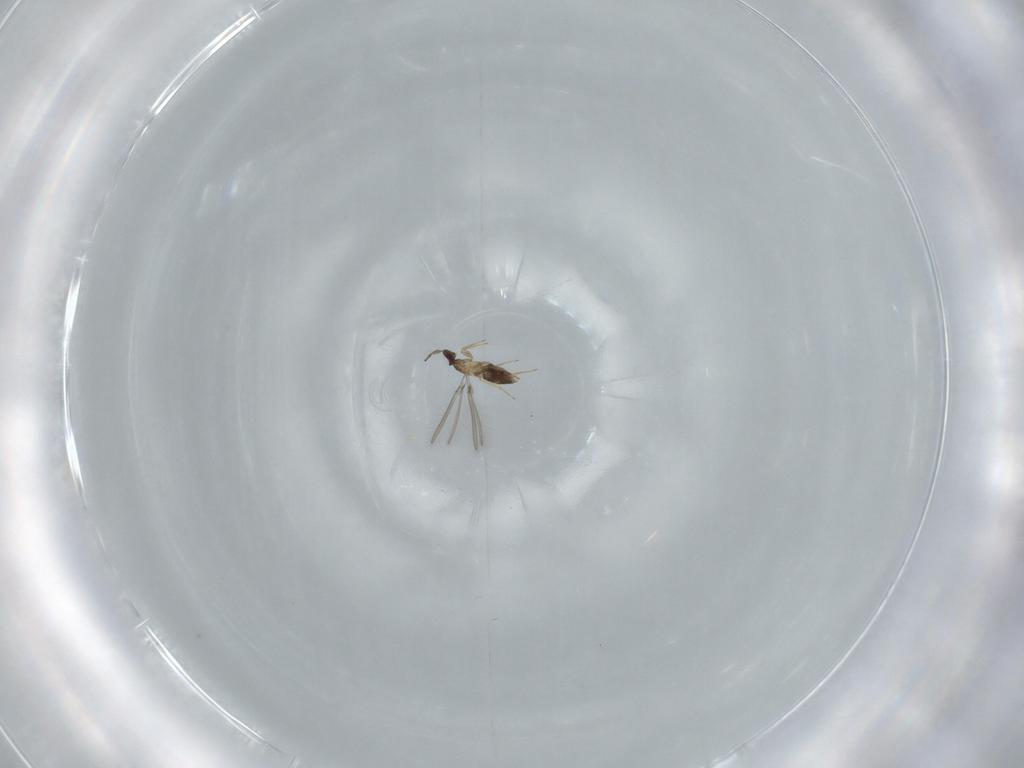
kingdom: Animalia
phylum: Arthropoda
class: Insecta
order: Hymenoptera
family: Mymaridae
